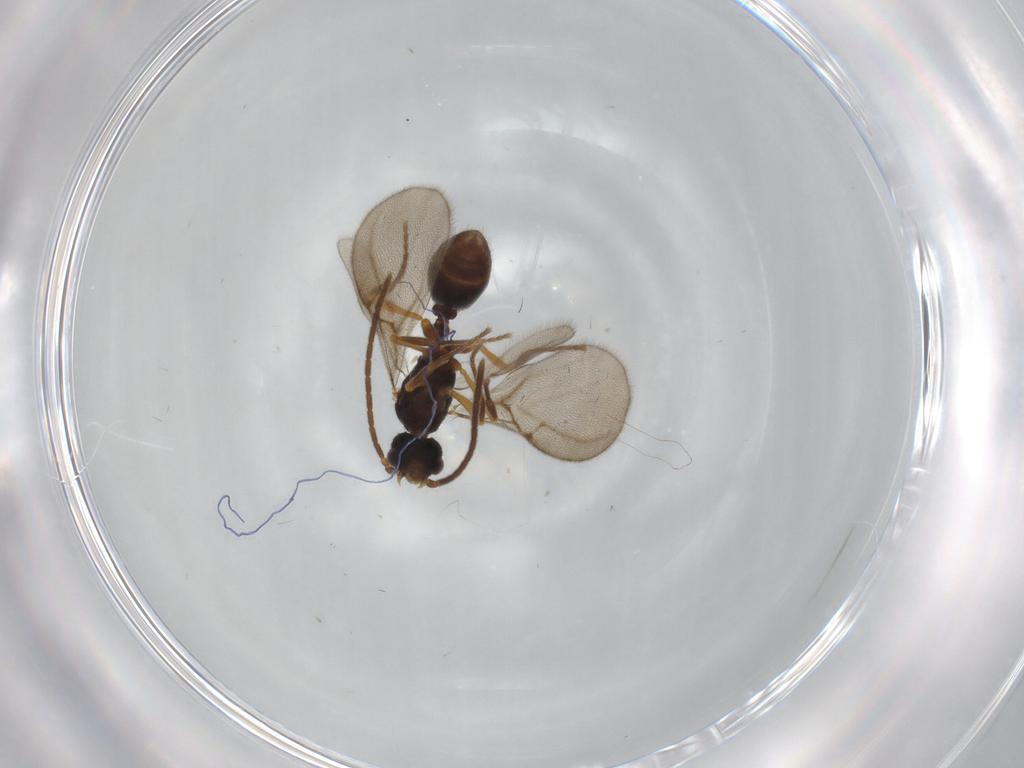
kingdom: Animalia
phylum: Arthropoda
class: Insecta
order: Hymenoptera
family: Formicidae
